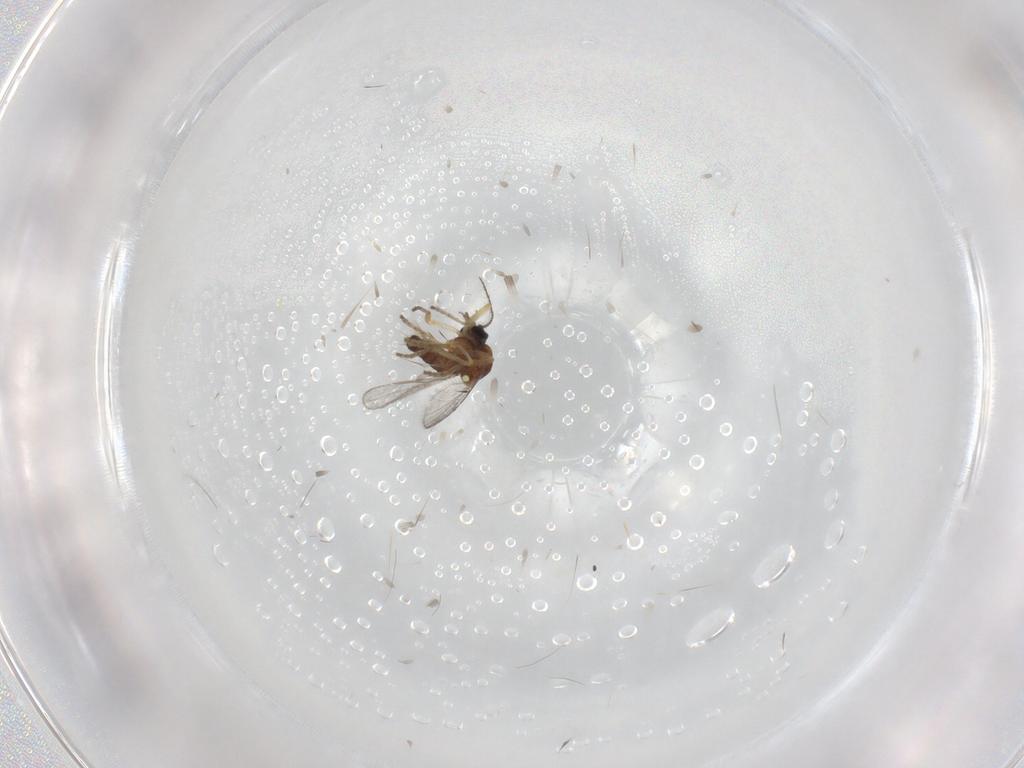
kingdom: Animalia
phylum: Arthropoda
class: Insecta
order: Diptera
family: Ceratopogonidae
